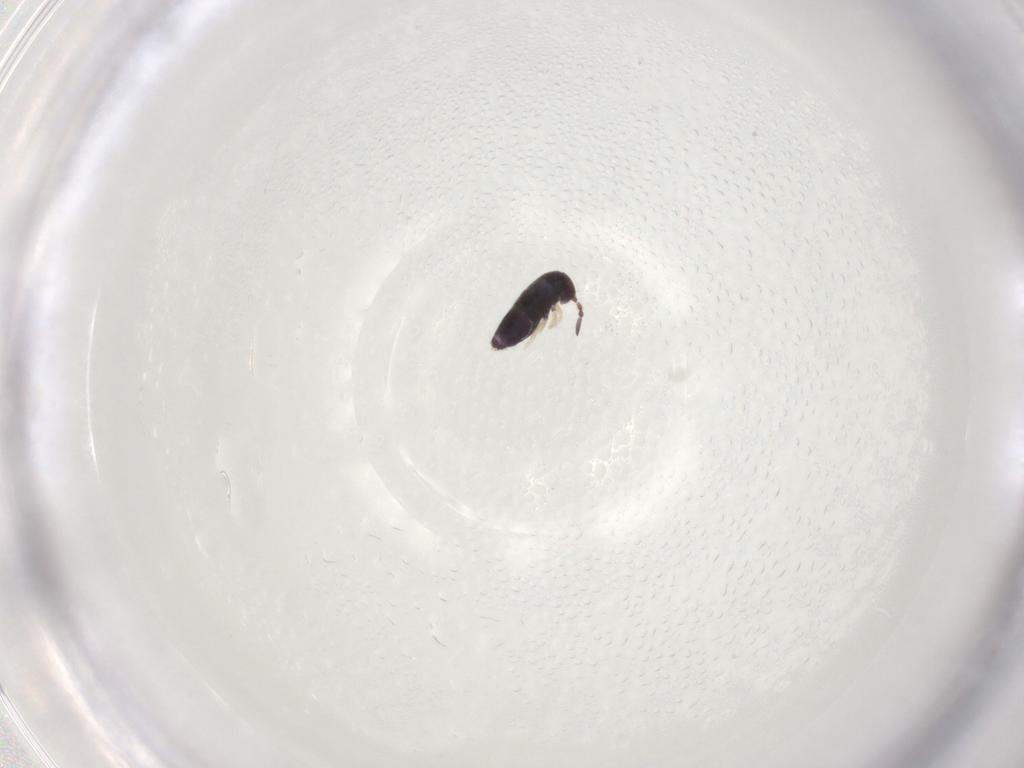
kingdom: Animalia
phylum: Arthropoda
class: Collembola
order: Entomobryomorpha
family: Entomobryidae
